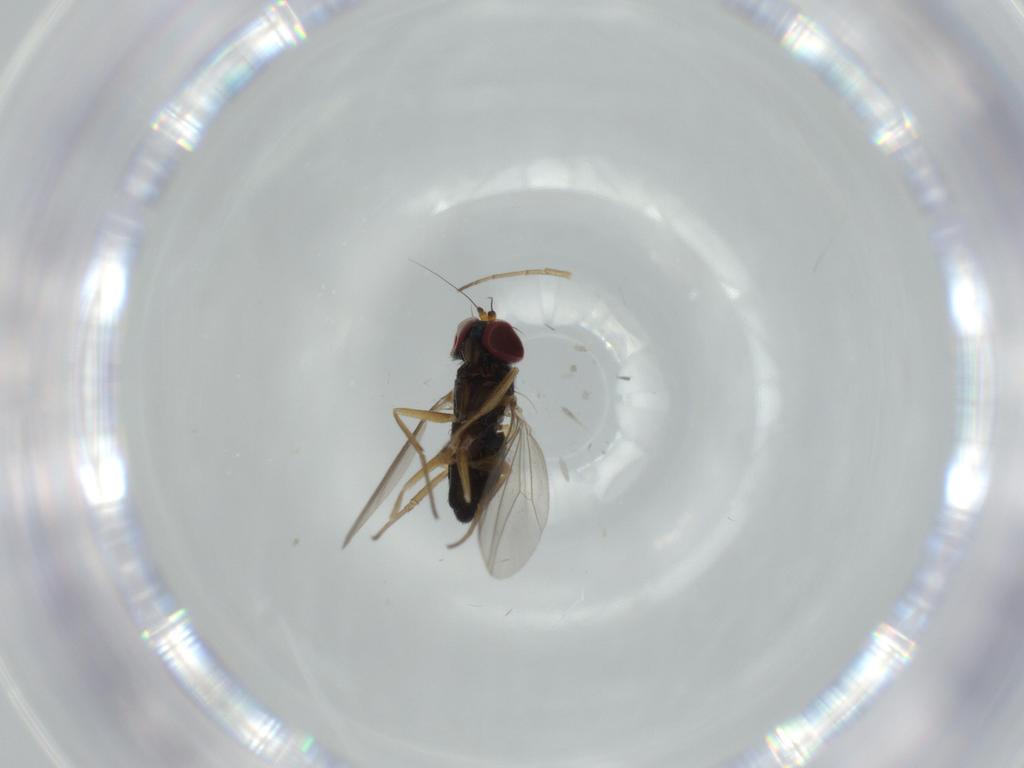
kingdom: Animalia
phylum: Arthropoda
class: Insecta
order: Diptera
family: Dolichopodidae
